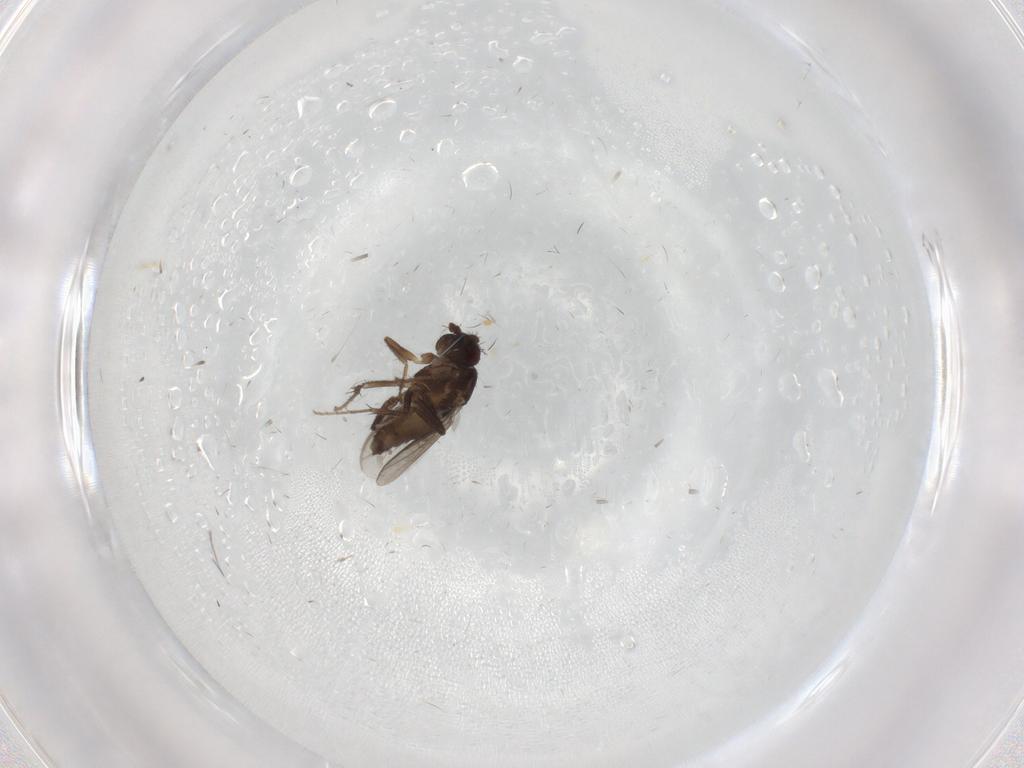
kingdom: Animalia
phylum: Arthropoda
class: Insecta
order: Diptera
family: Sphaeroceridae
